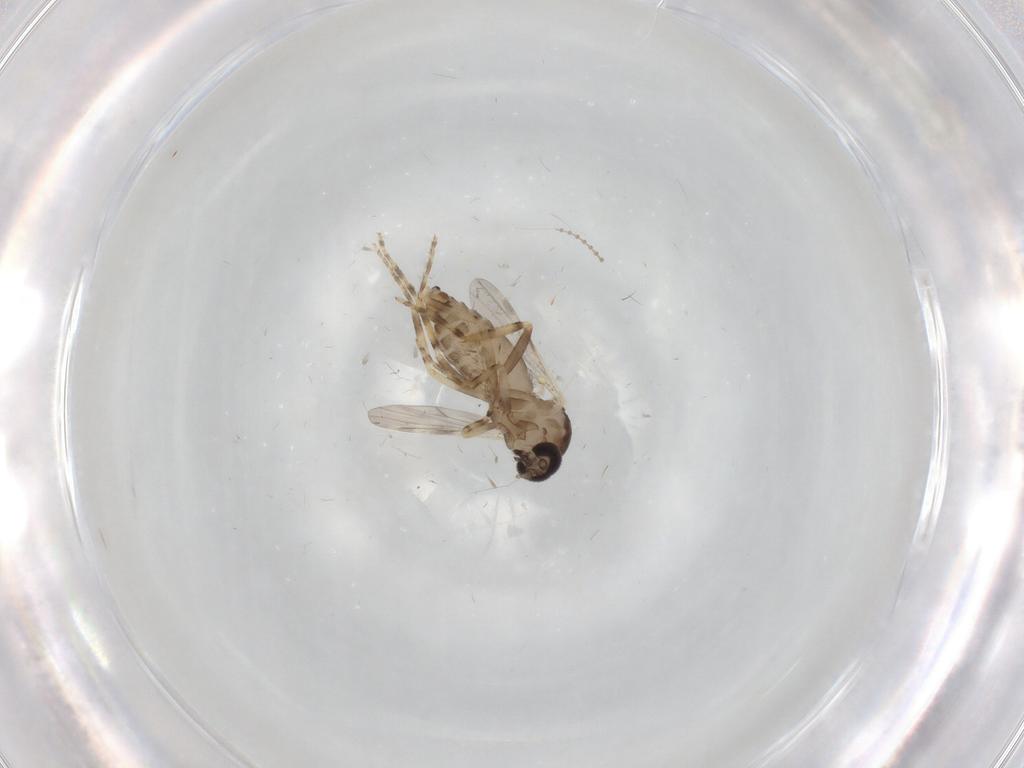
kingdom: Animalia
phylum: Arthropoda
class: Insecta
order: Diptera
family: Ceratopogonidae
